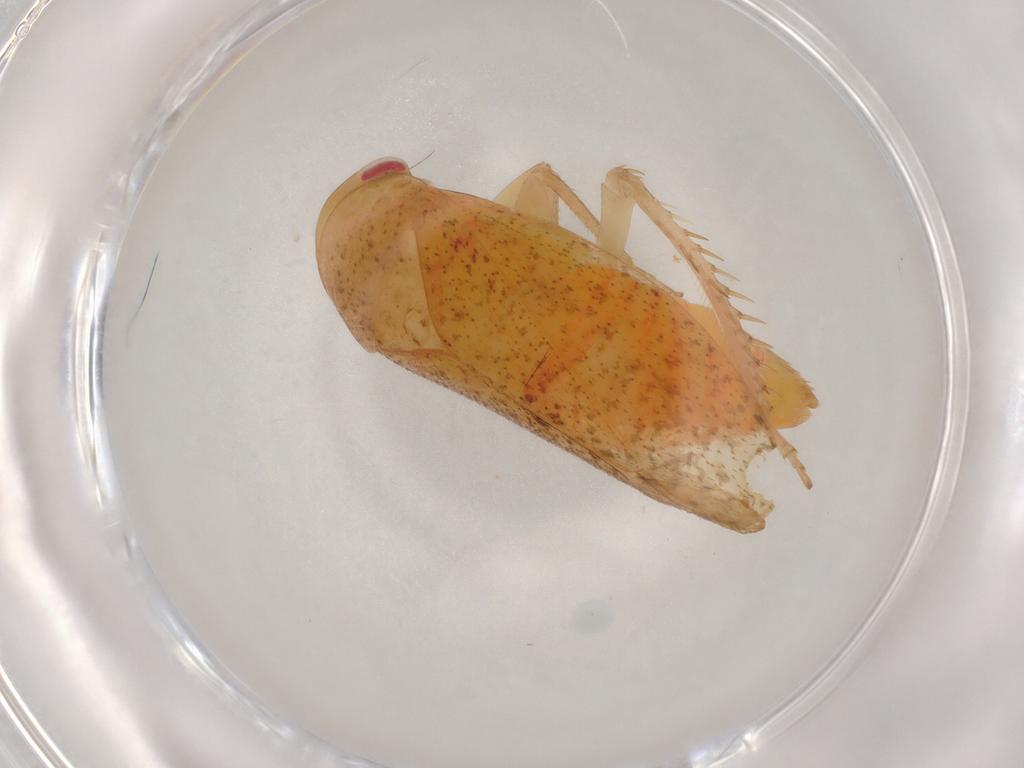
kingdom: Animalia
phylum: Arthropoda
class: Insecta
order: Hemiptera
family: Cicadellidae
